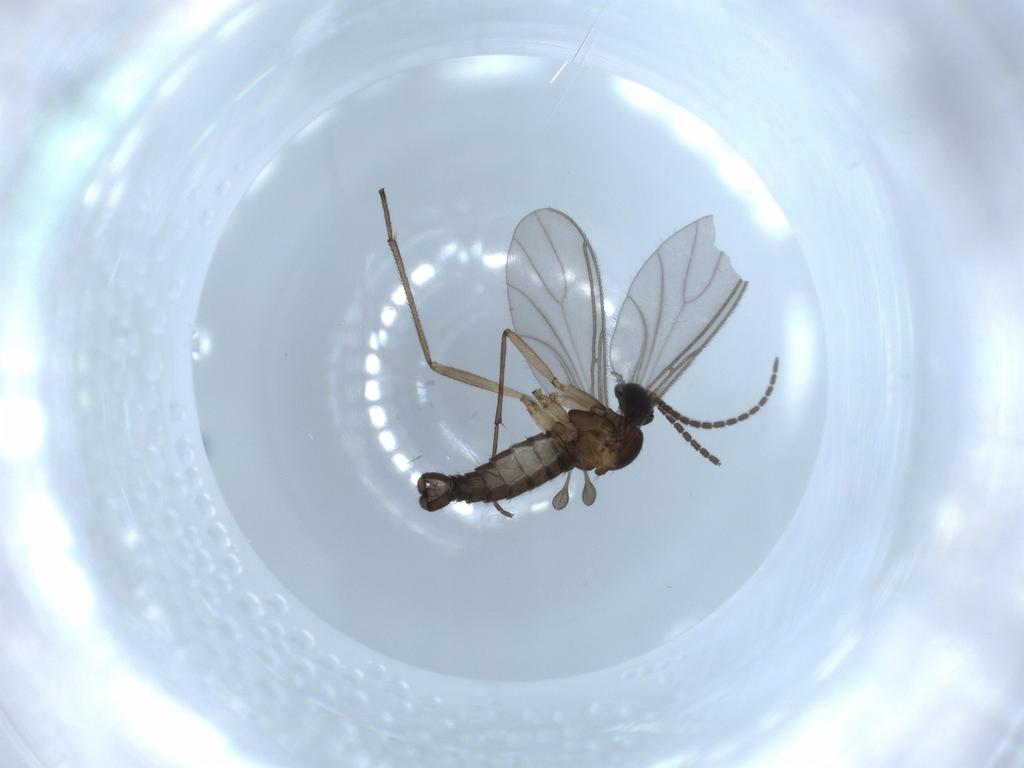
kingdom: Animalia
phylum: Arthropoda
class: Insecta
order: Diptera
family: Sciaridae
